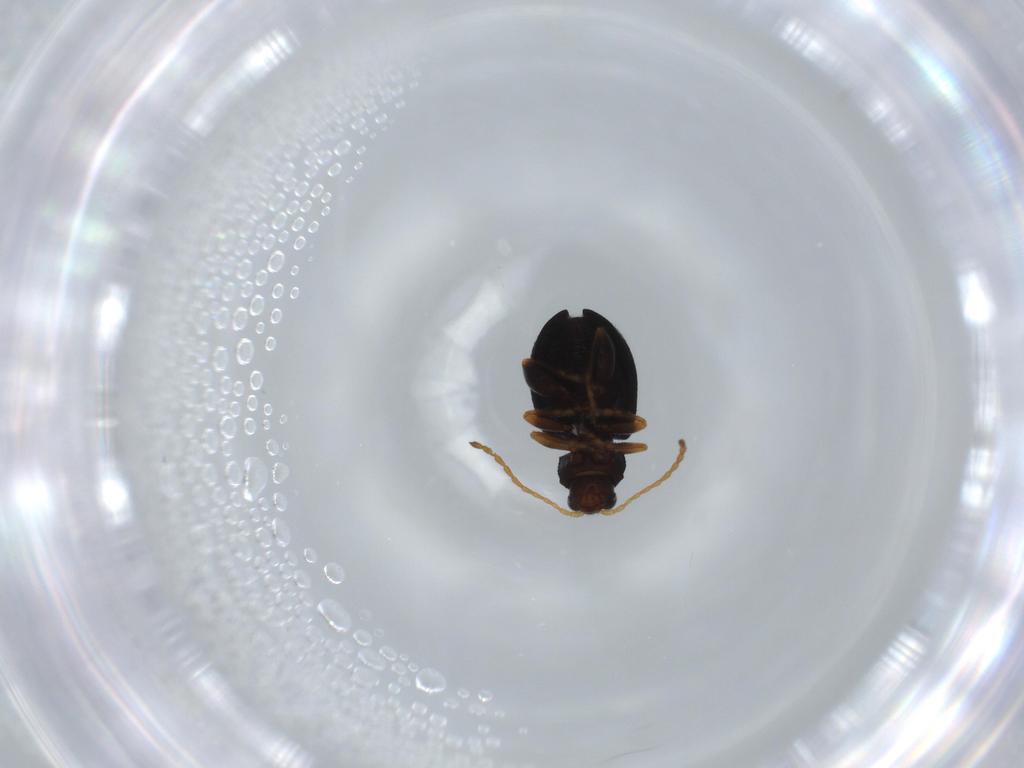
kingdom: Animalia
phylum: Arthropoda
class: Insecta
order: Coleoptera
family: Chrysomelidae
